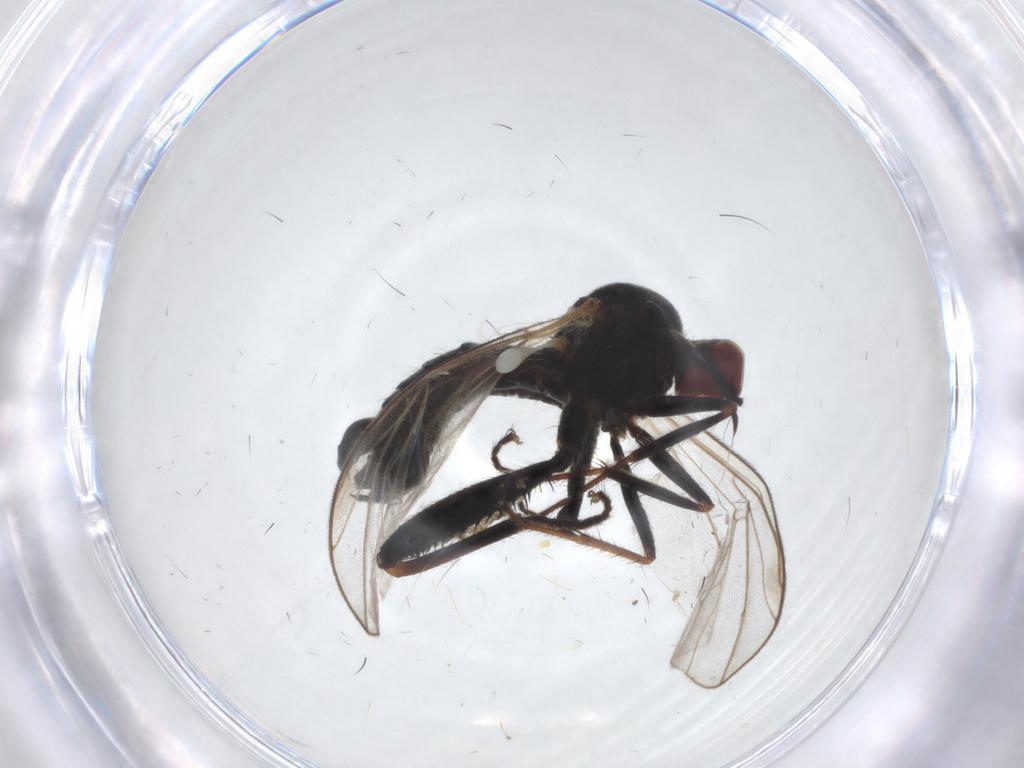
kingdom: Animalia
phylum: Arthropoda
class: Insecta
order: Diptera
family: Hybotidae
